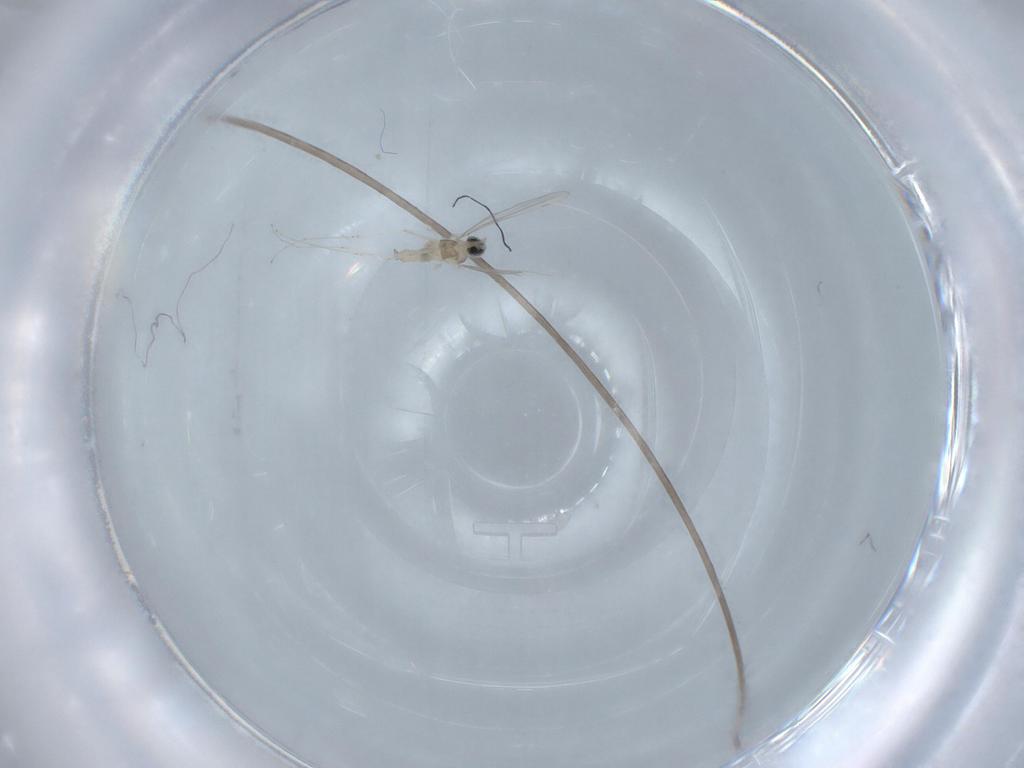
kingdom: Animalia
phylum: Arthropoda
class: Insecta
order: Diptera
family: Cecidomyiidae
